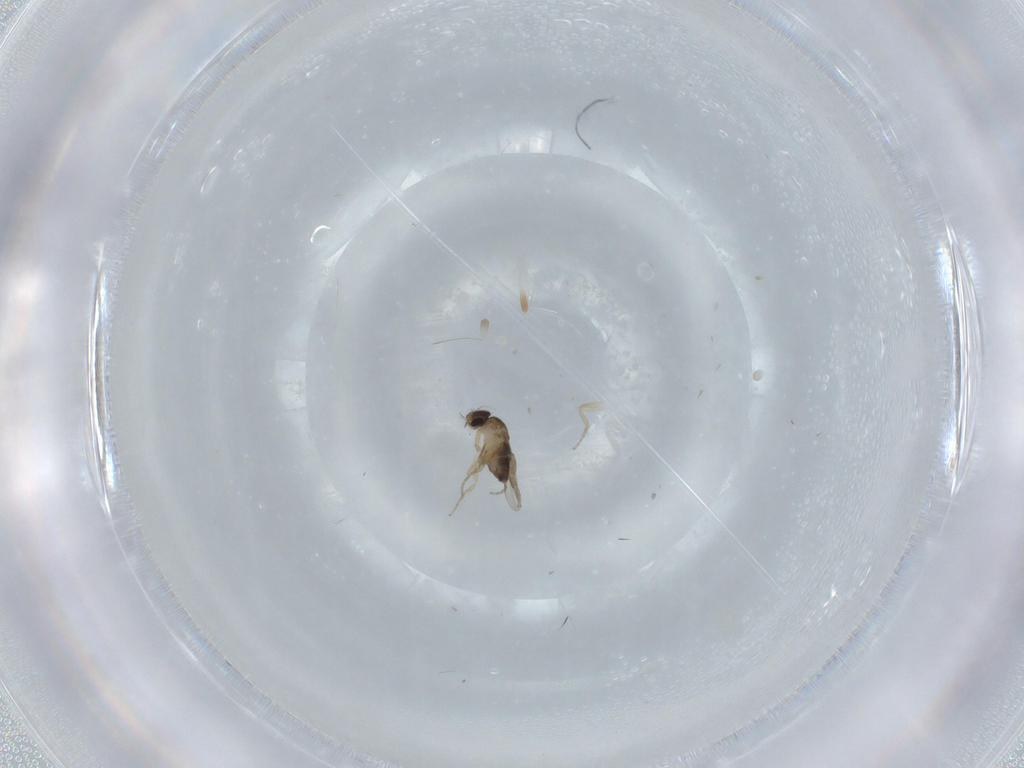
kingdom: Animalia
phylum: Arthropoda
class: Insecta
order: Diptera
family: Phoridae
